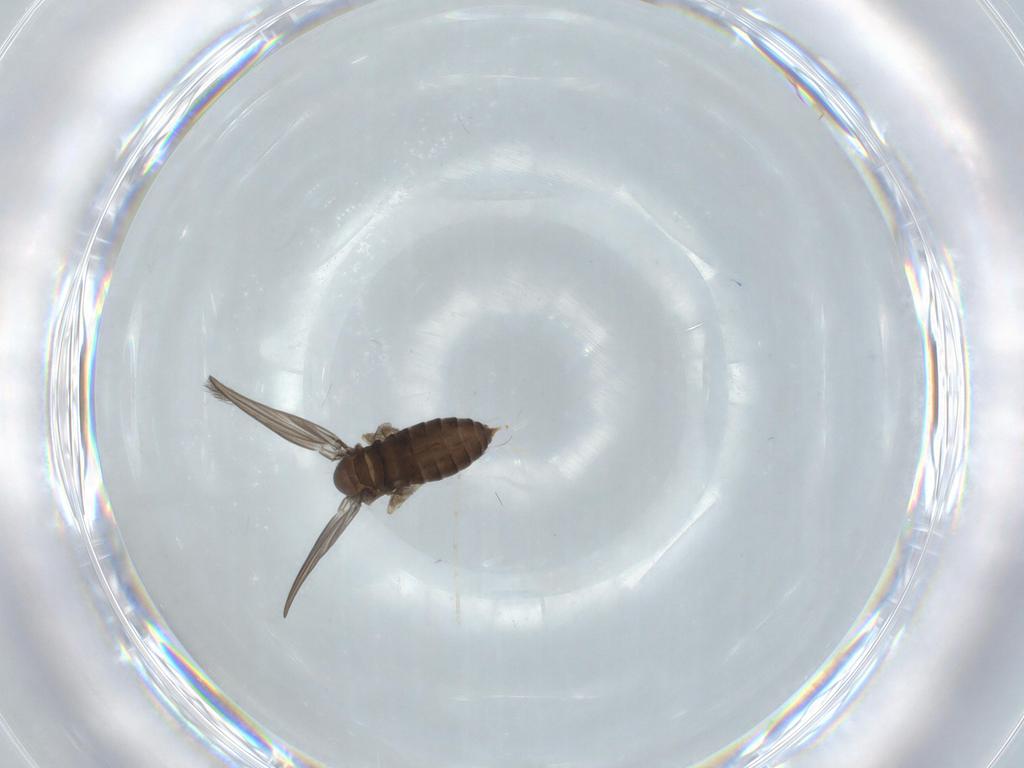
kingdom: Animalia
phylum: Arthropoda
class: Insecta
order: Diptera
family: Psychodidae
